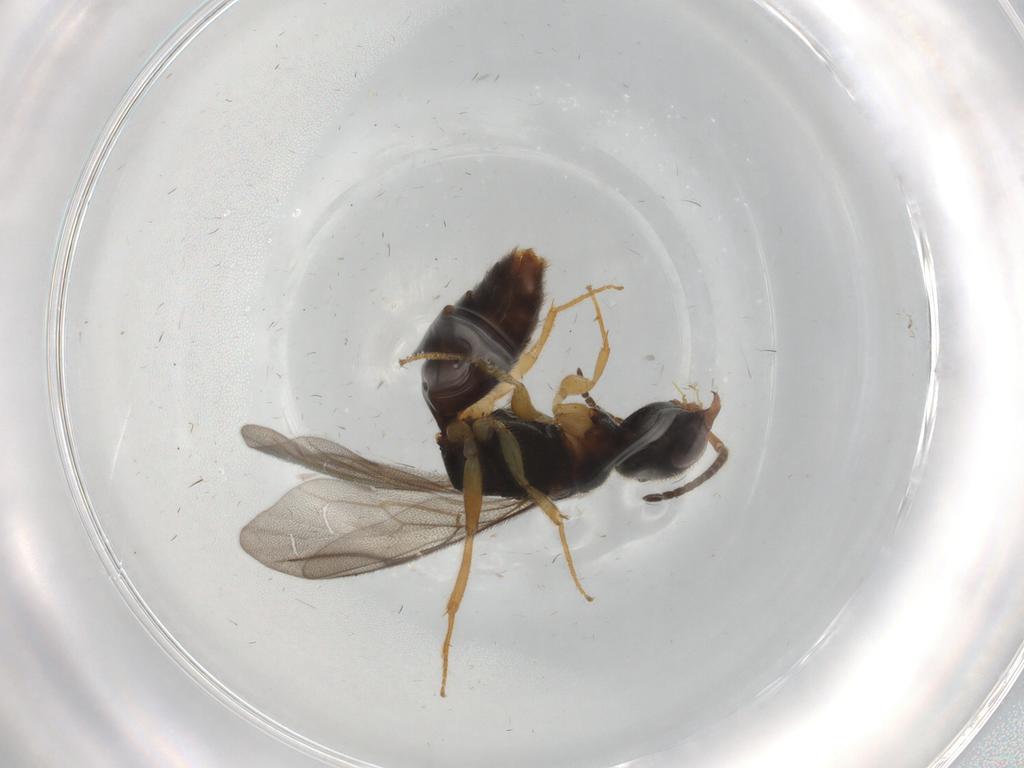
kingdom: Animalia
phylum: Arthropoda
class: Insecta
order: Hymenoptera
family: Bethylidae
